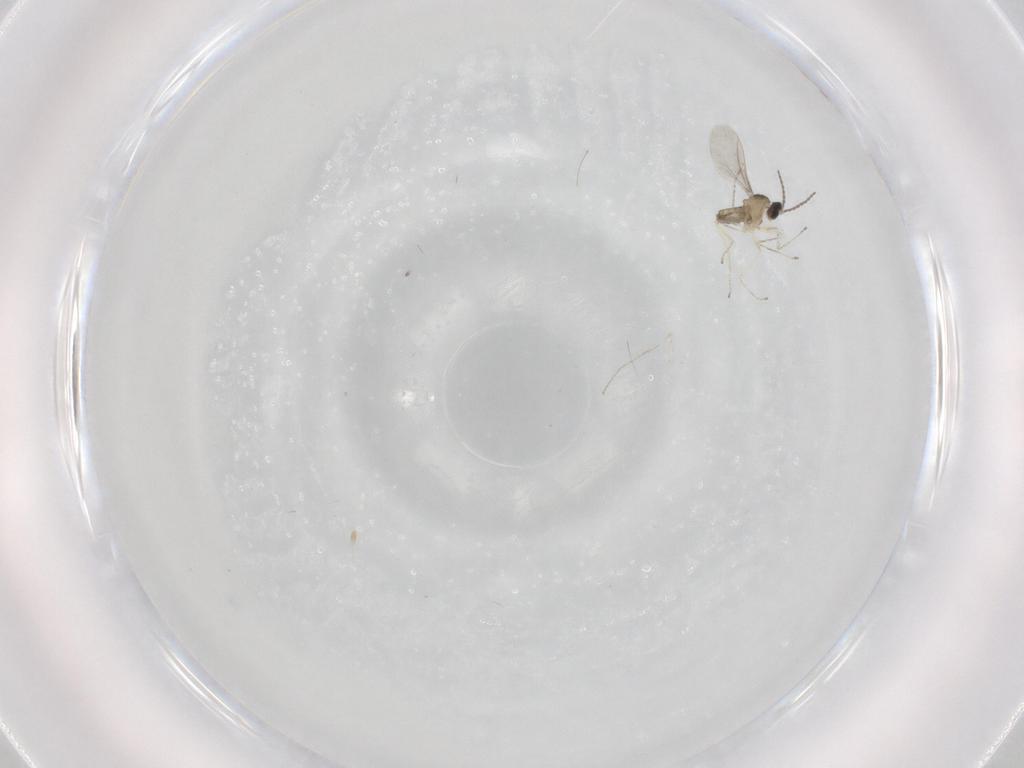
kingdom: Animalia
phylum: Arthropoda
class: Insecta
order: Diptera
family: Cecidomyiidae
